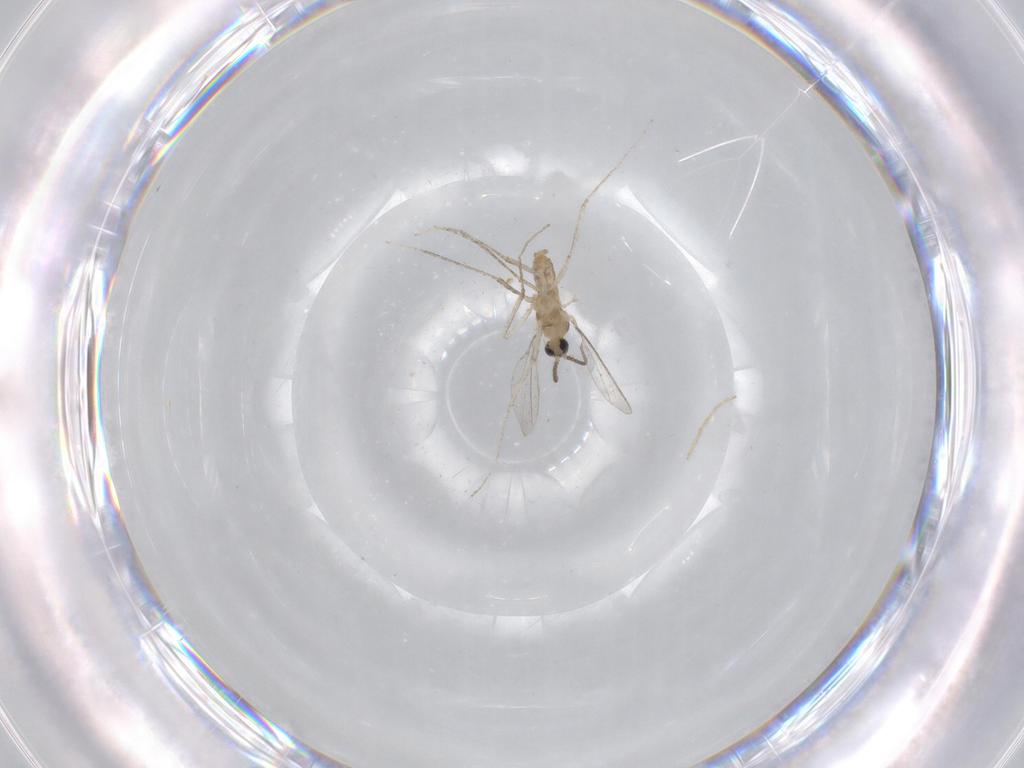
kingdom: Animalia
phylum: Arthropoda
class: Insecta
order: Diptera
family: Cecidomyiidae
